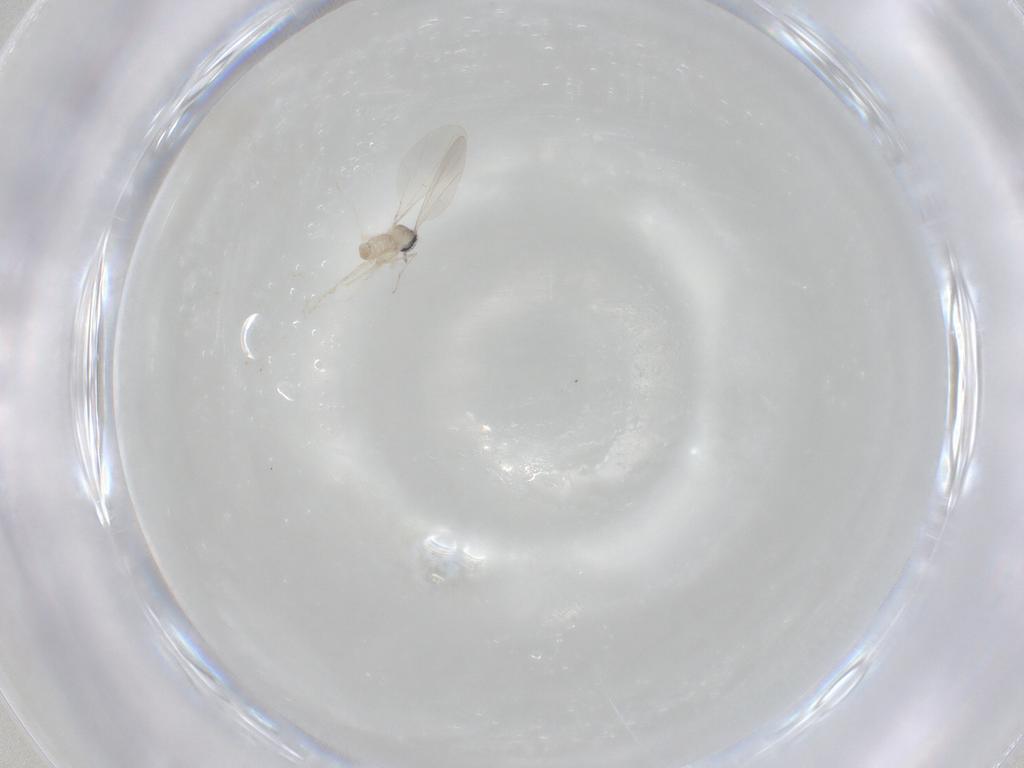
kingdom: Animalia
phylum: Arthropoda
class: Insecta
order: Diptera
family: Cecidomyiidae
